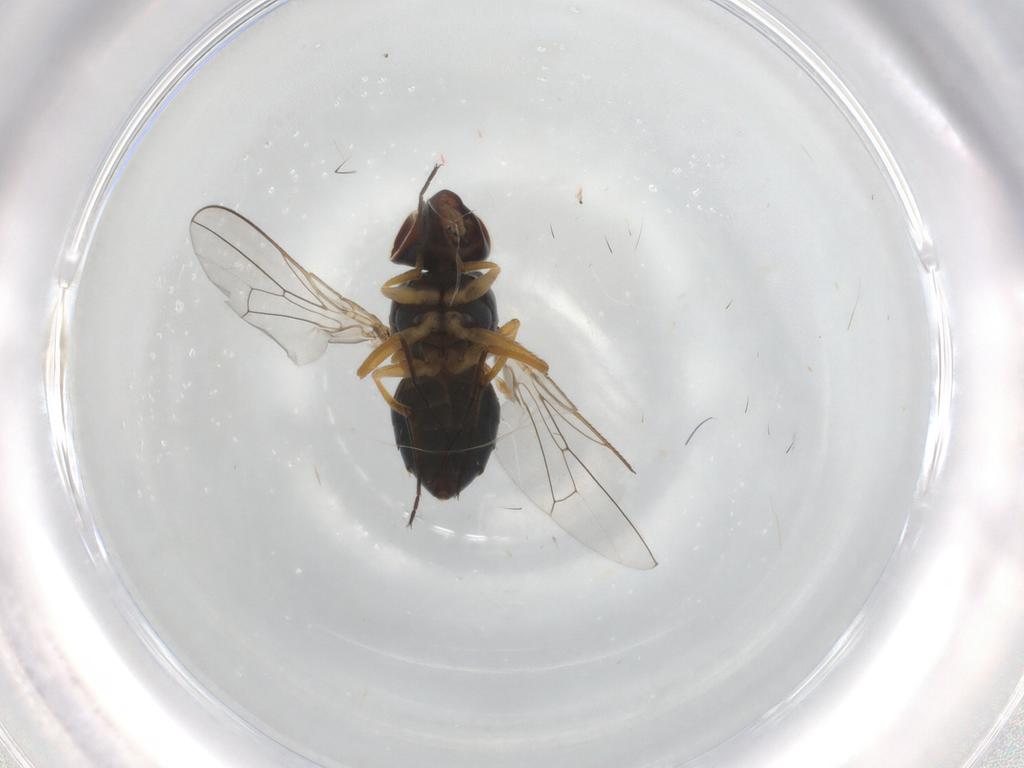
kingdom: Animalia
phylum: Arthropoda
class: Insecta
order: Diptera
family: Ephydridae
